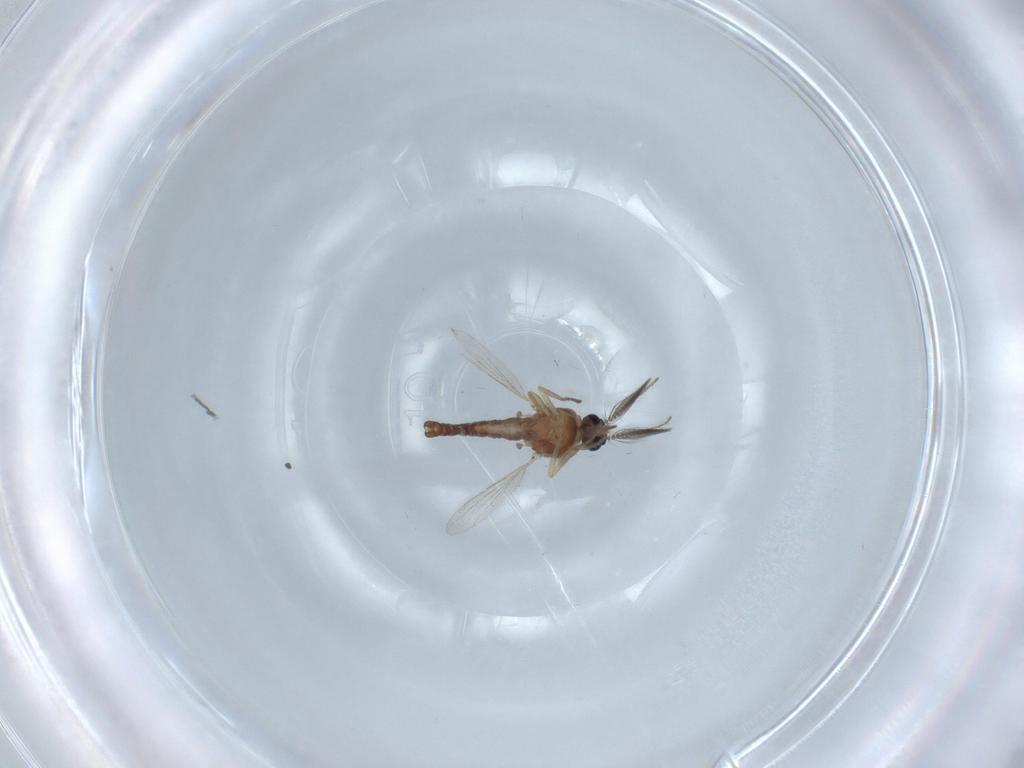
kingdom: Animalia
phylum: Arthropoda
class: Insecta
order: Diptera
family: Ceratopogonidae
